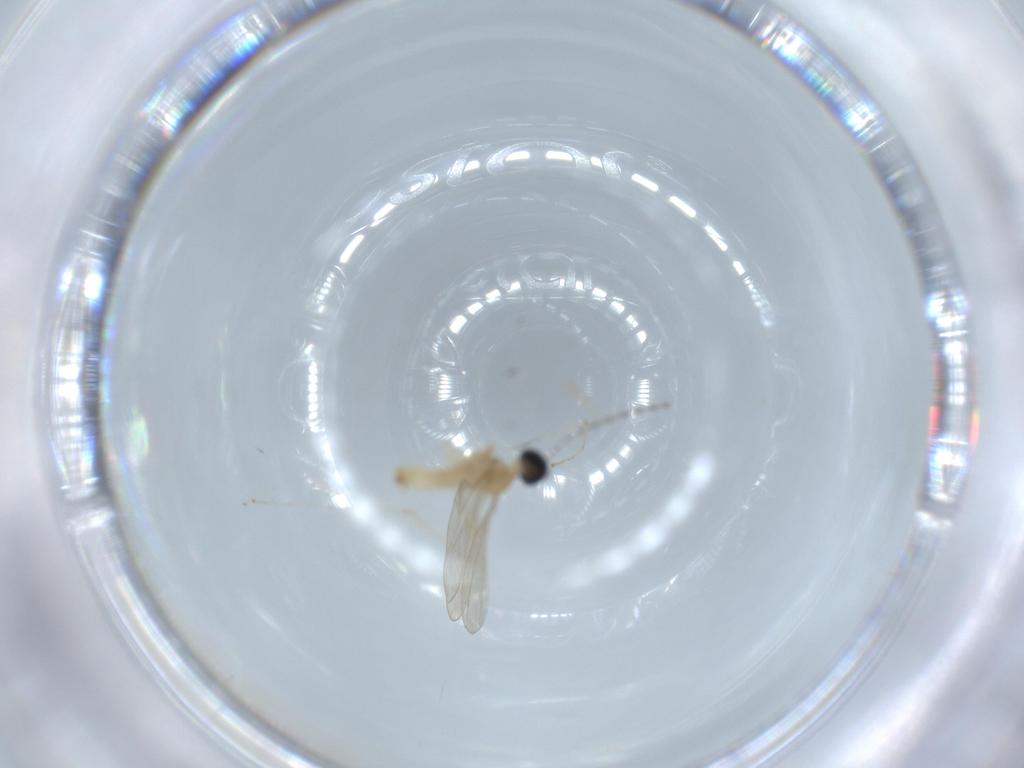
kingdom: Animalia
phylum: Arthropoda
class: Insecta
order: Diptera
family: Cecidomyiidae
